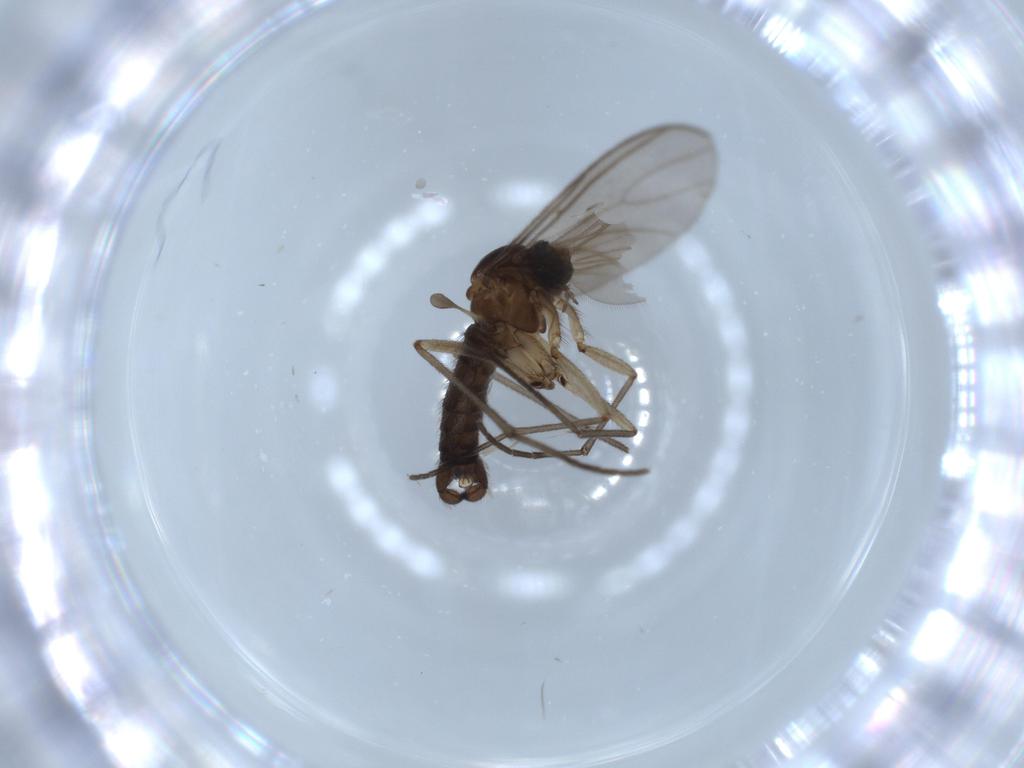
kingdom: Animalia
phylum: Arthropoda
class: Insecta
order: Diptera
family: Sciaridae
